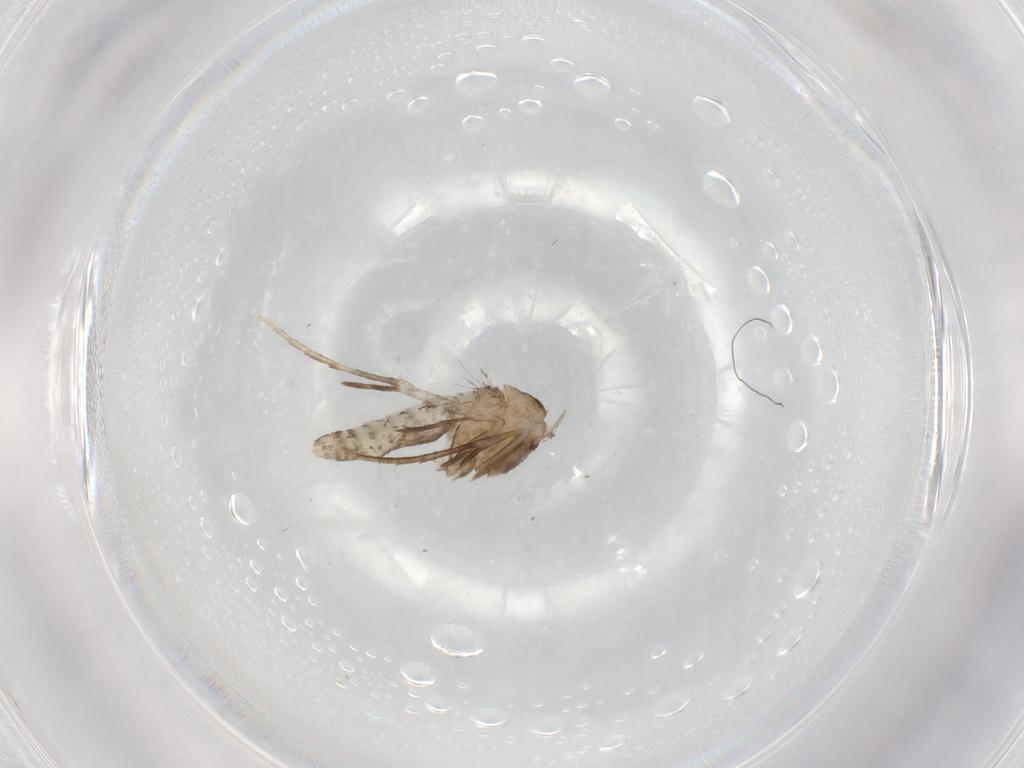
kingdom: Animalia
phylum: Arthropoda
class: Insecta
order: Lepidoptera
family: Nymphalidae
